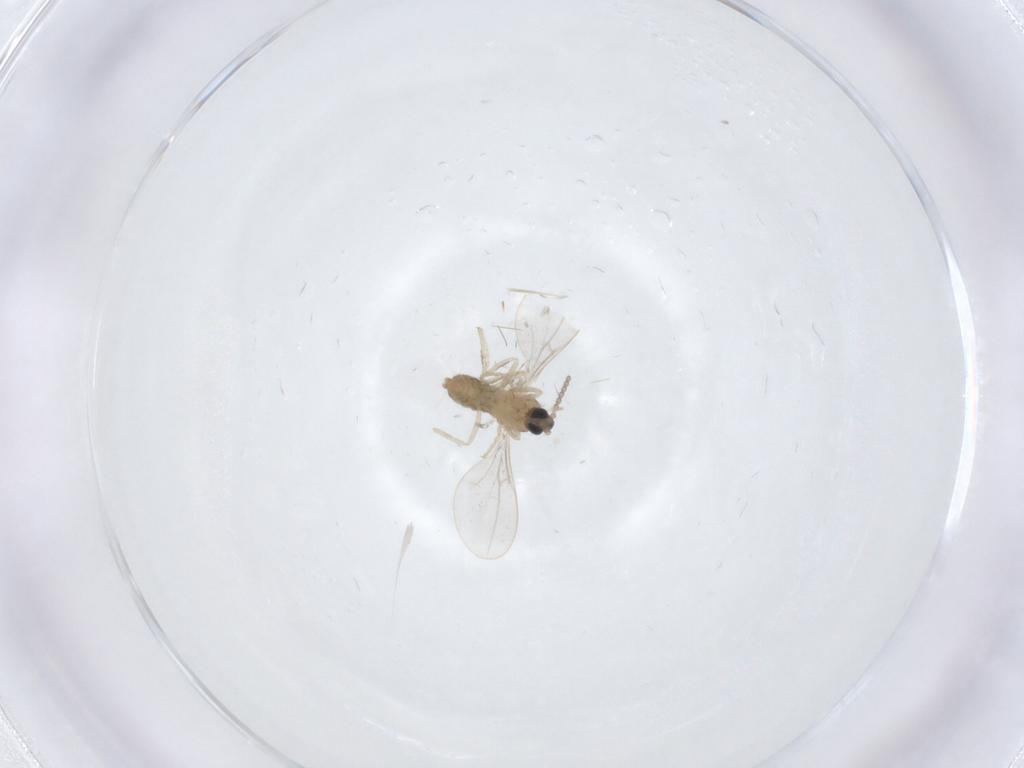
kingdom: Animalia
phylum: Arthropoda
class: Insecta
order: Diptera
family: Cecidomyiidae
